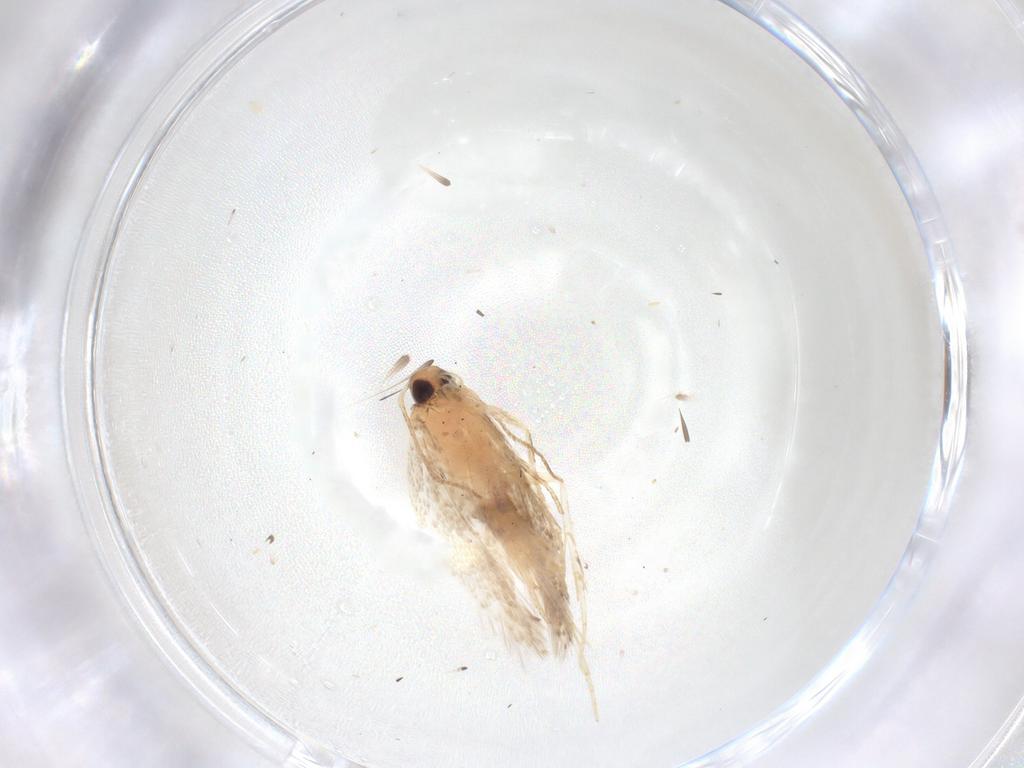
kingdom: Animalia
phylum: Arthropoda
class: Insecta
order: Lepidoptera
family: Gelechiidae
